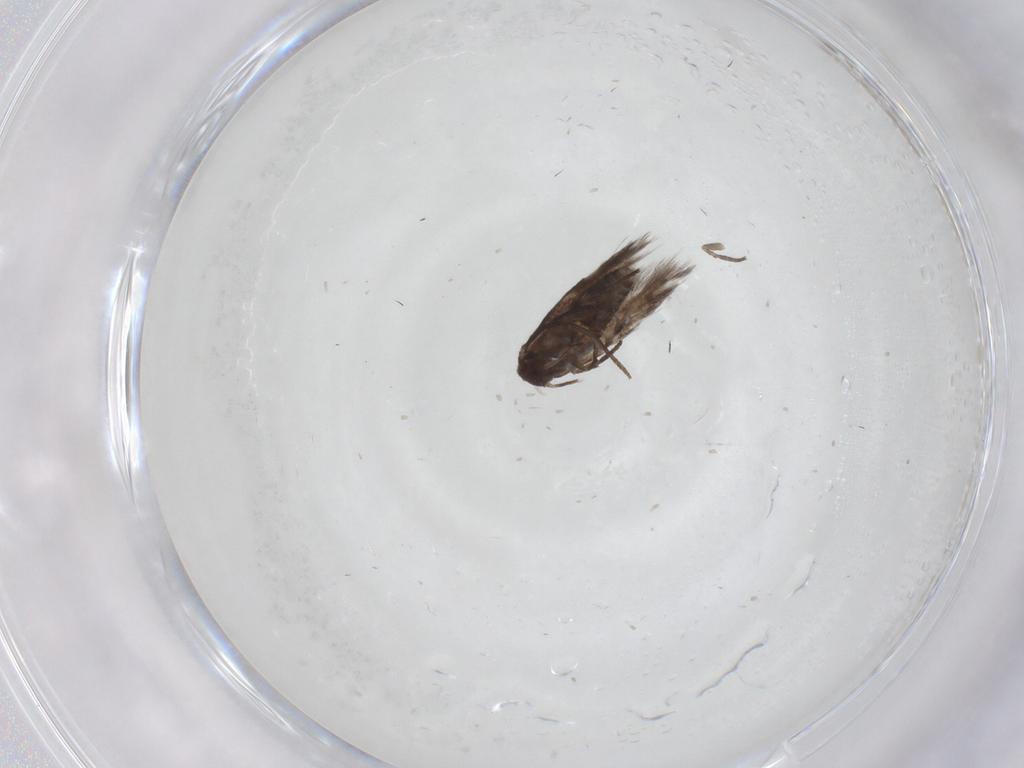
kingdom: Animalia
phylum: Arthropoda
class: Insecta
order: Lepidoptera
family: Lyonetiidae
